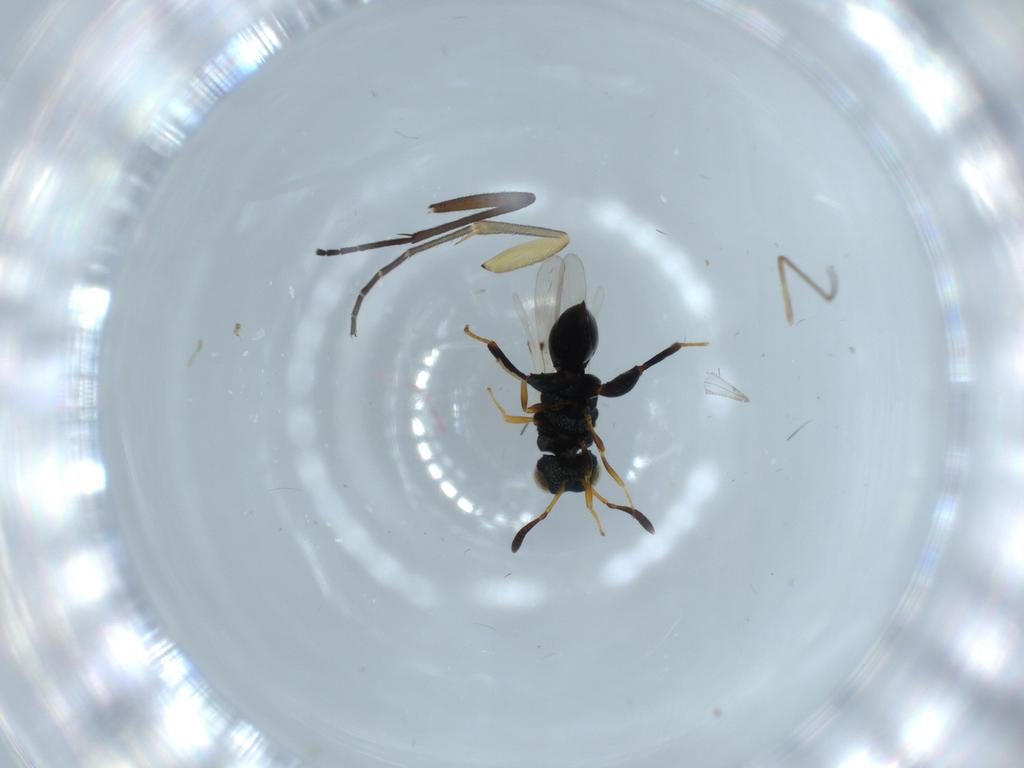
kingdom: Animalia
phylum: Arthropoda
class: Insecta
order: Hymenoptera
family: Chalcididae
